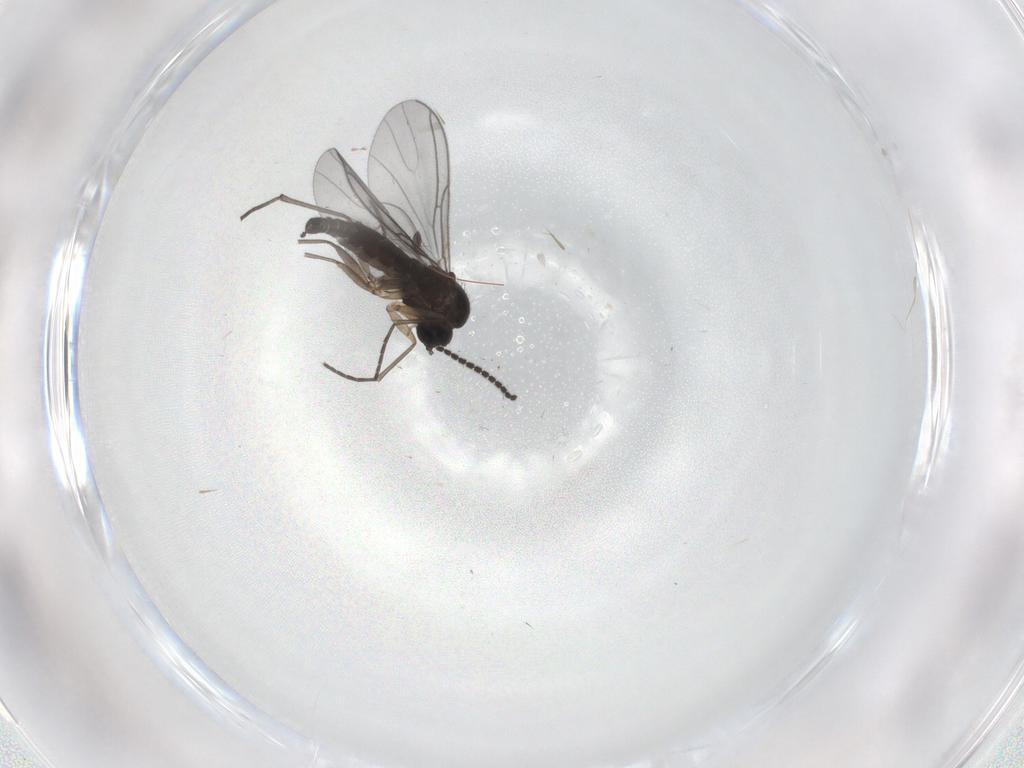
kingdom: Animalia
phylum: Arthropoda
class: Insecta
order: Diptera
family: Sciaridae
